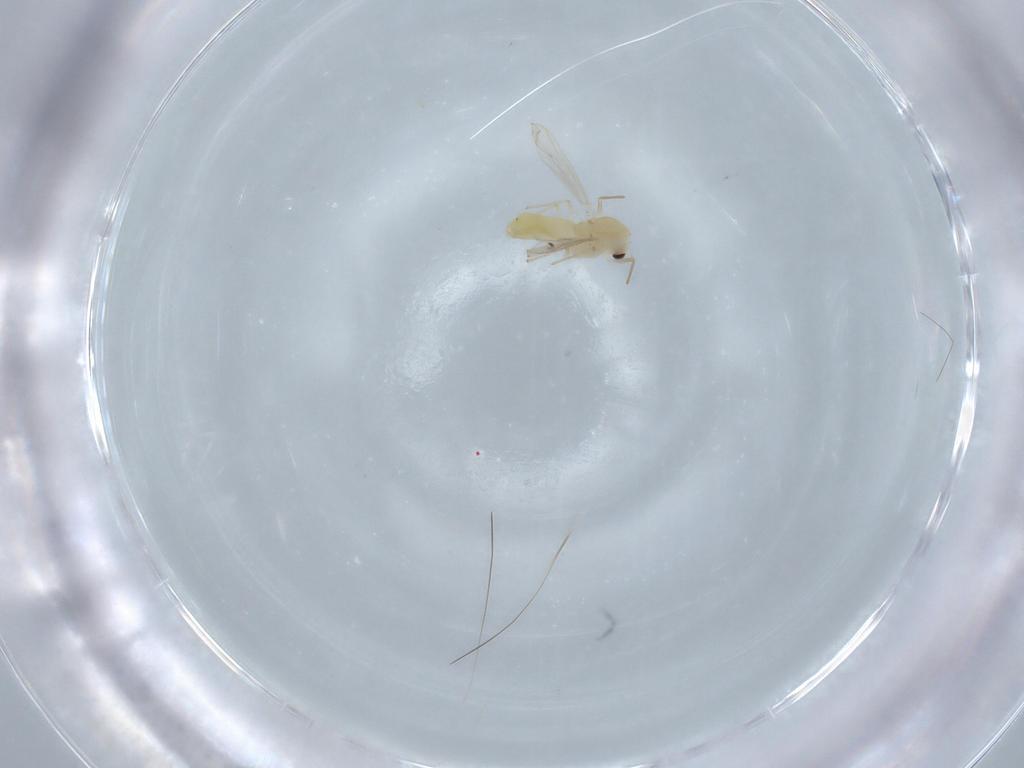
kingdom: Animalia
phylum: Arthropoda
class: Insecta
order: Diptera
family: Chironomidae
